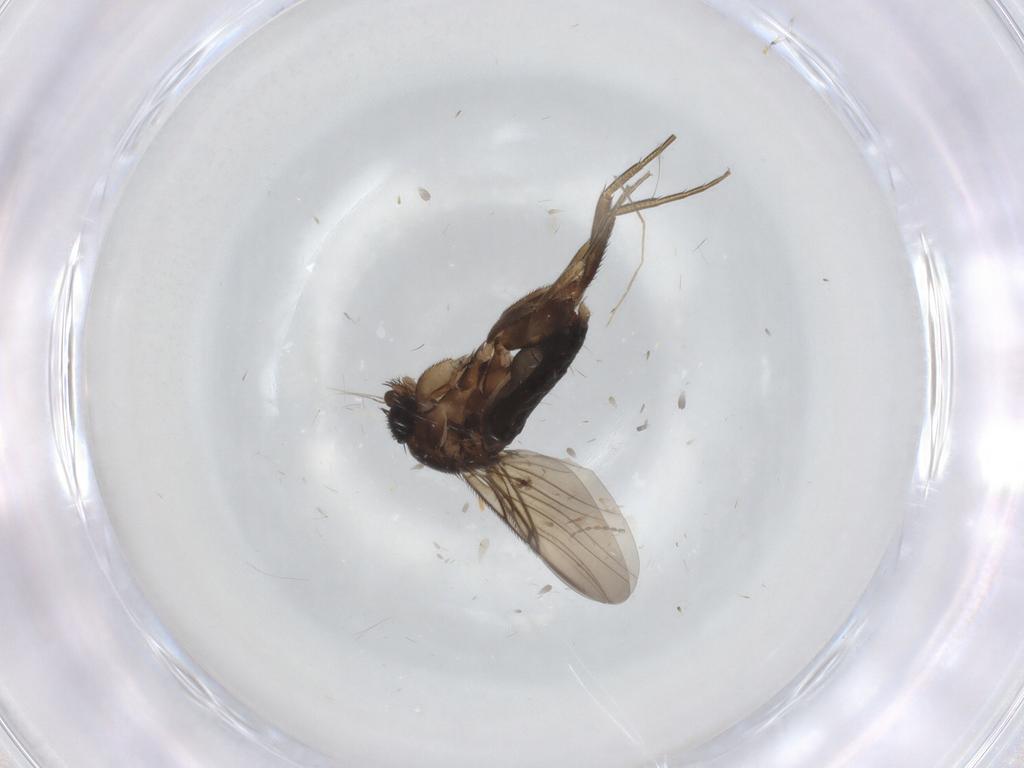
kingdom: Animalia
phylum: Arthropoda
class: Insecta
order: Diptera
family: Phoridae
